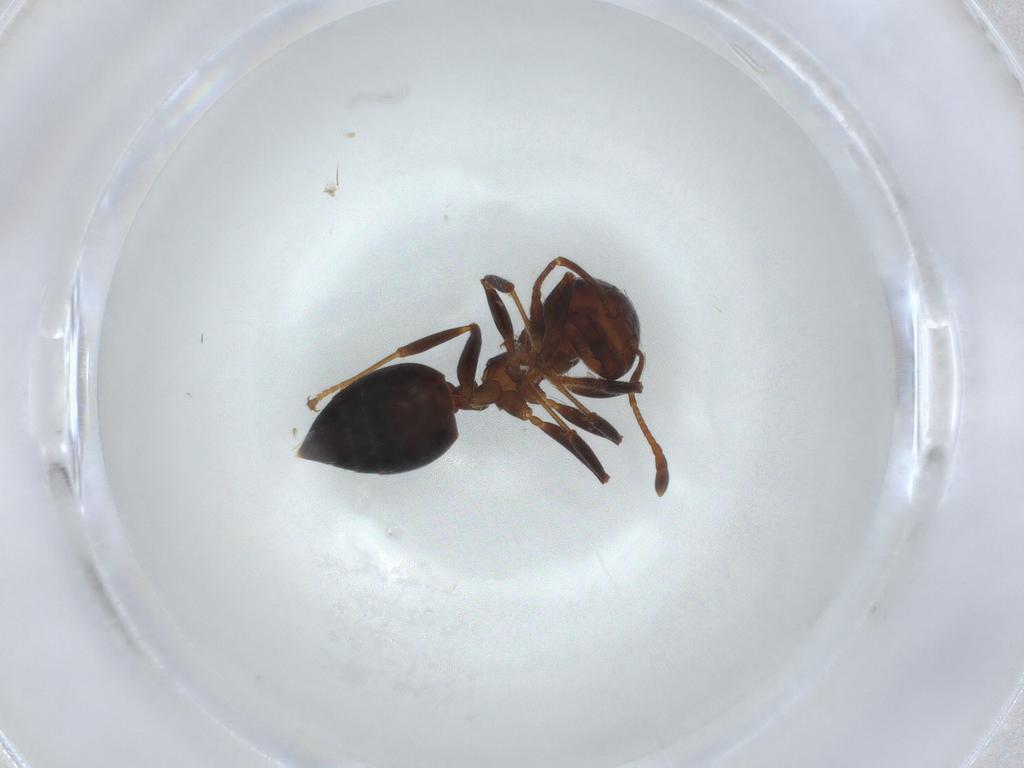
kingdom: Animalia
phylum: Arthropoda
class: Insecta
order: Hymenoptera
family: Formicidae
